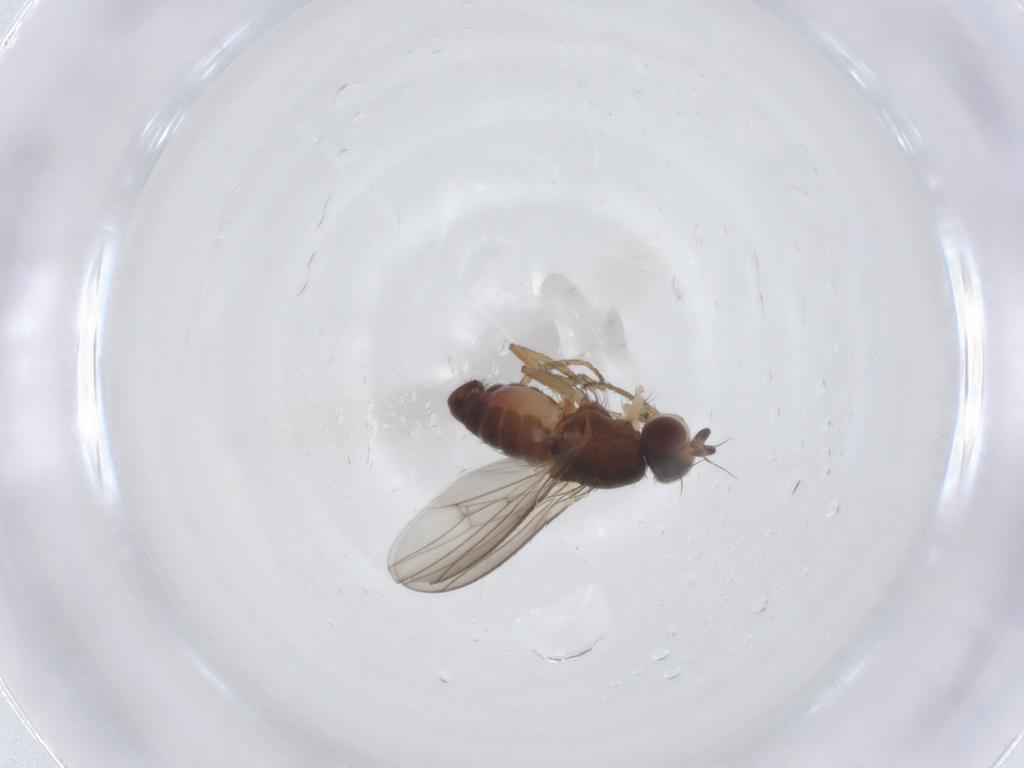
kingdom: Animalia
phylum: Arthropoda
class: Insecta
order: Diptera
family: Heleomyzidae
